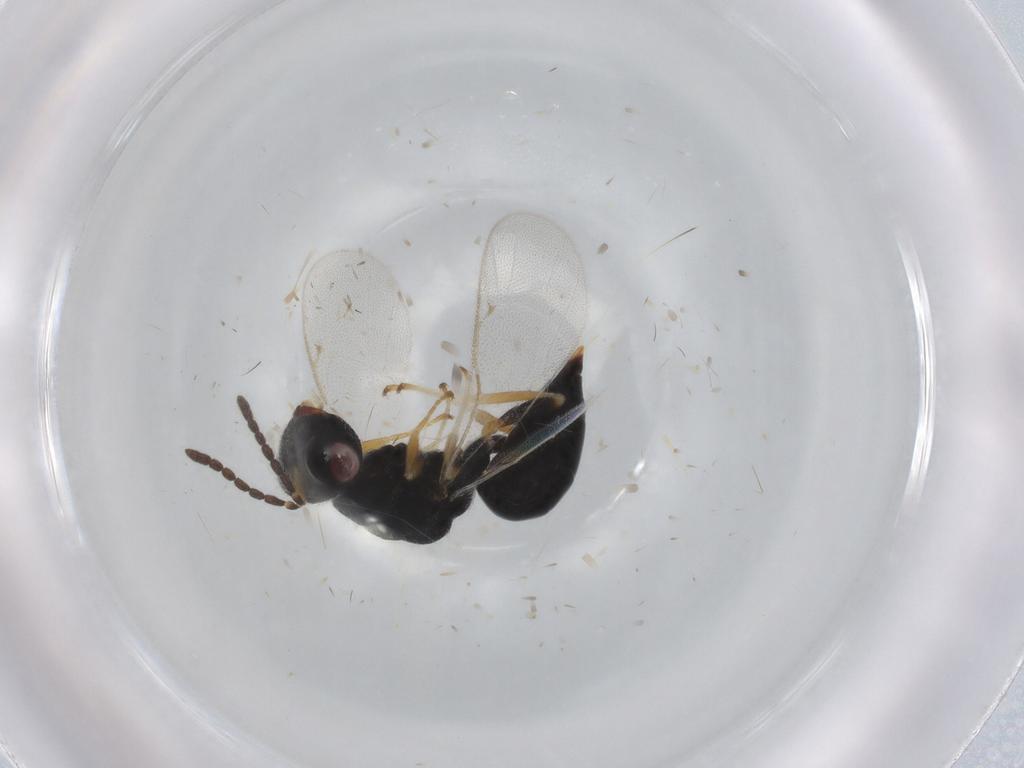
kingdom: Animalia
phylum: Arthropoda
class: Insecta
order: Hymenoptera
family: Eurytomidae
